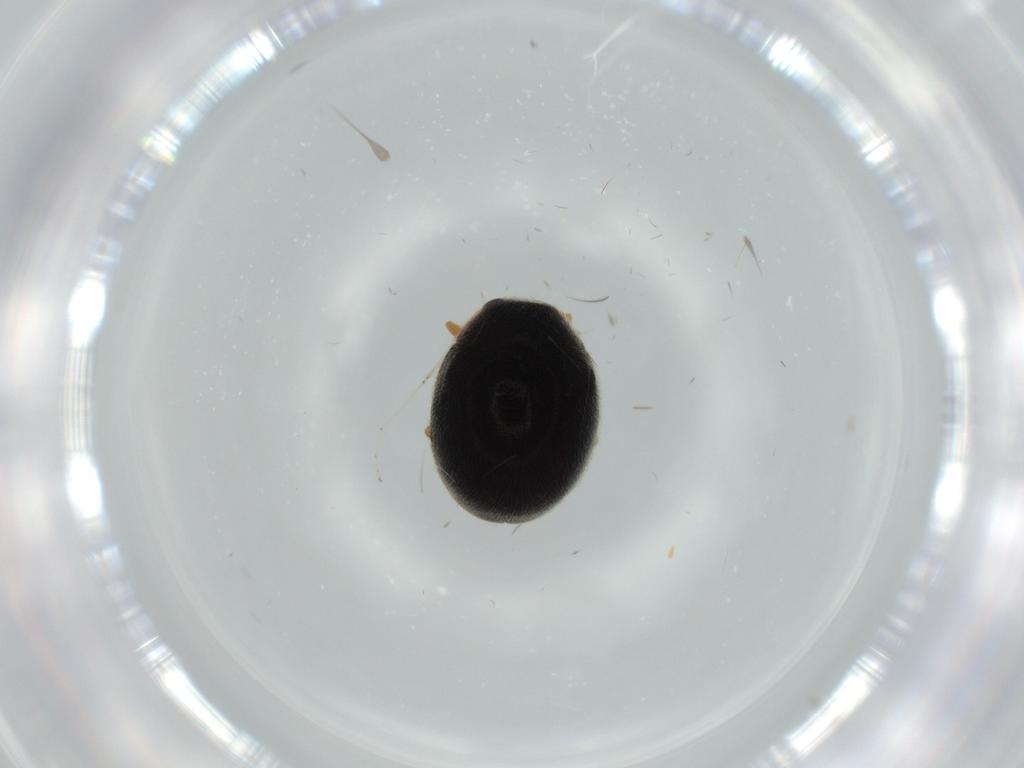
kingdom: Animalia
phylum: Arthropoda
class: Insecta
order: Coleoptera
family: Coccinellidae
